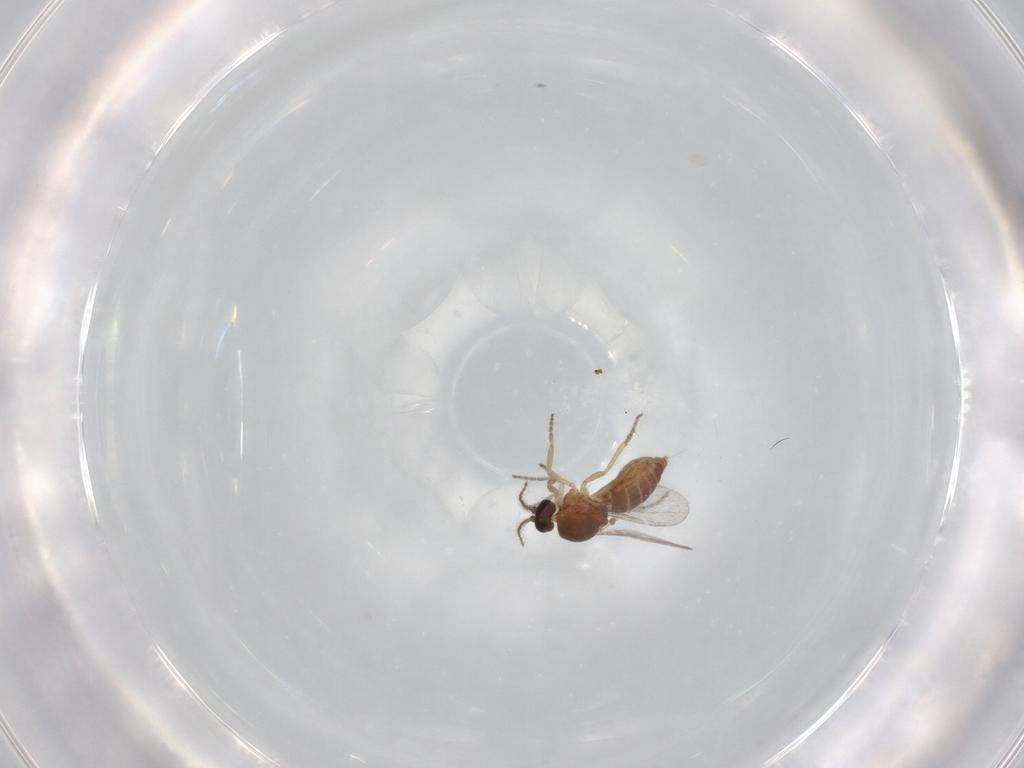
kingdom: Animalia
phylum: Arthropoda
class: Insecta
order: Diptera
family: Ceratopogonidae
